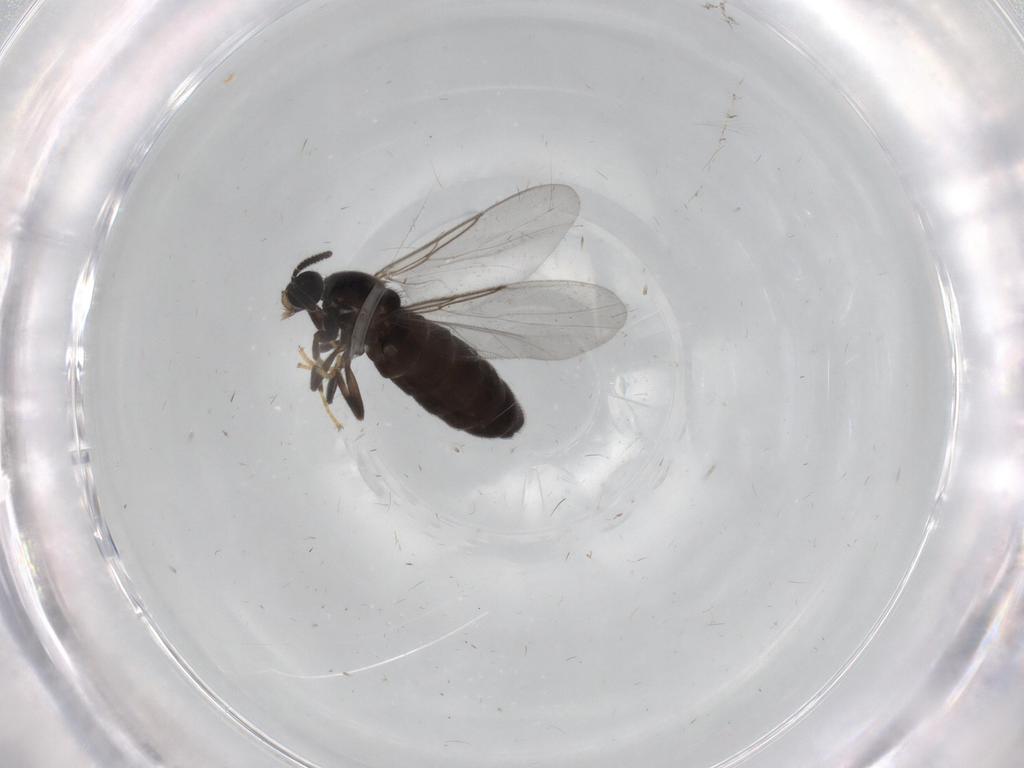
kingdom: Animalia
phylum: Arthropoda
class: Insecta
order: Diptera
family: Scatopsidae
